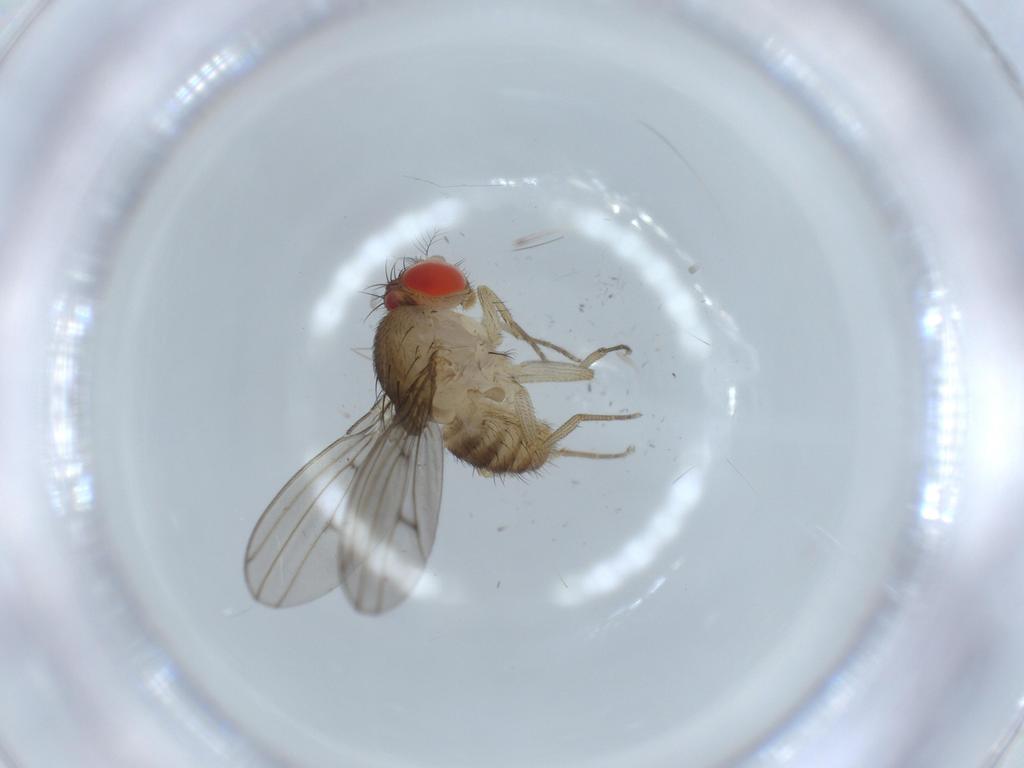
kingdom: Animalia
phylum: Arthropoda
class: Insecta
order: Diptera
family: Drosophilidae
